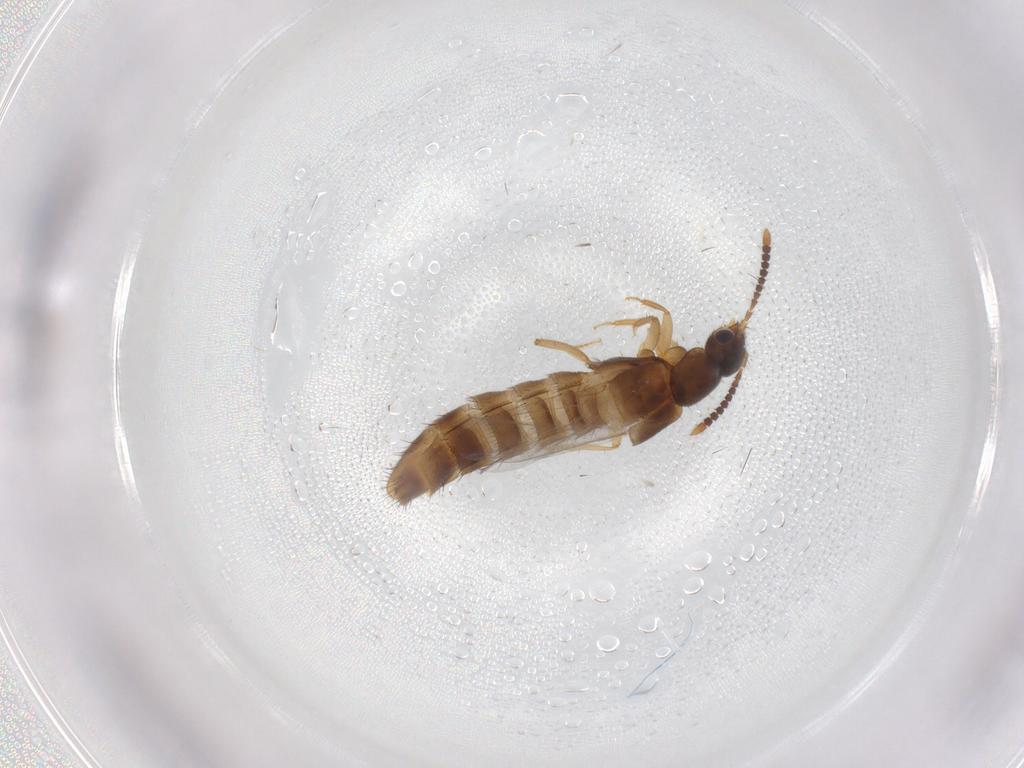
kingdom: Animalia
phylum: Arthropoda
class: Insecta
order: Coleoptera
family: Staphylinidae
